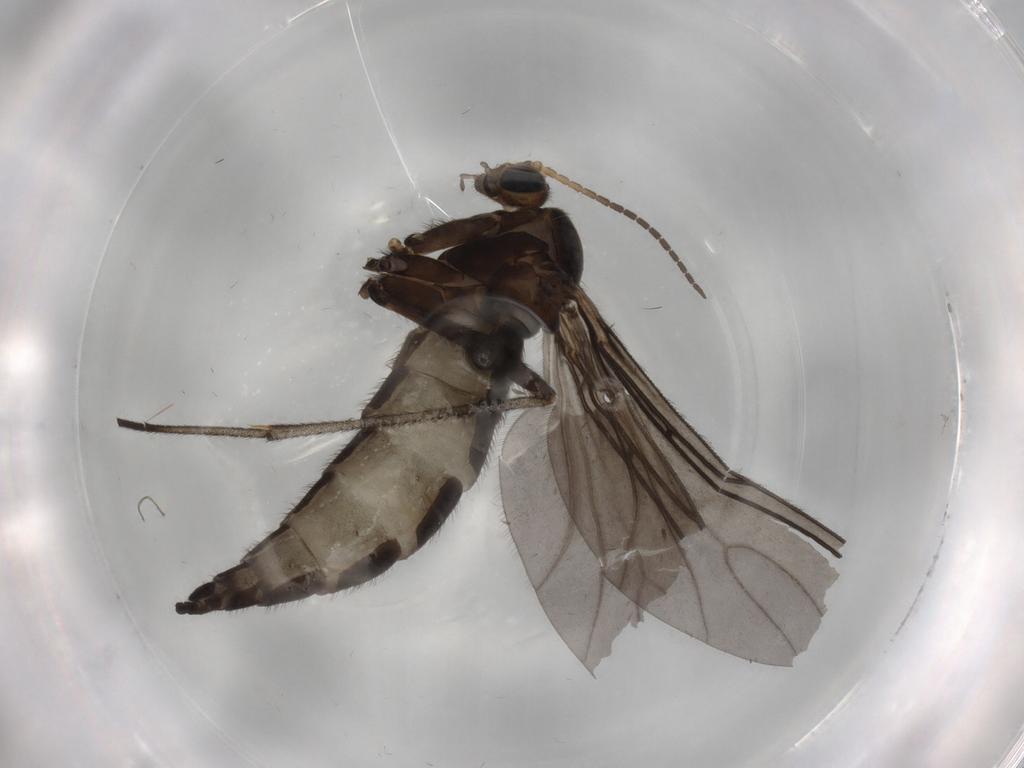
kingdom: Animalia
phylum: Arthropoda
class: Insecta
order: Diptera
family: Sciaridae
